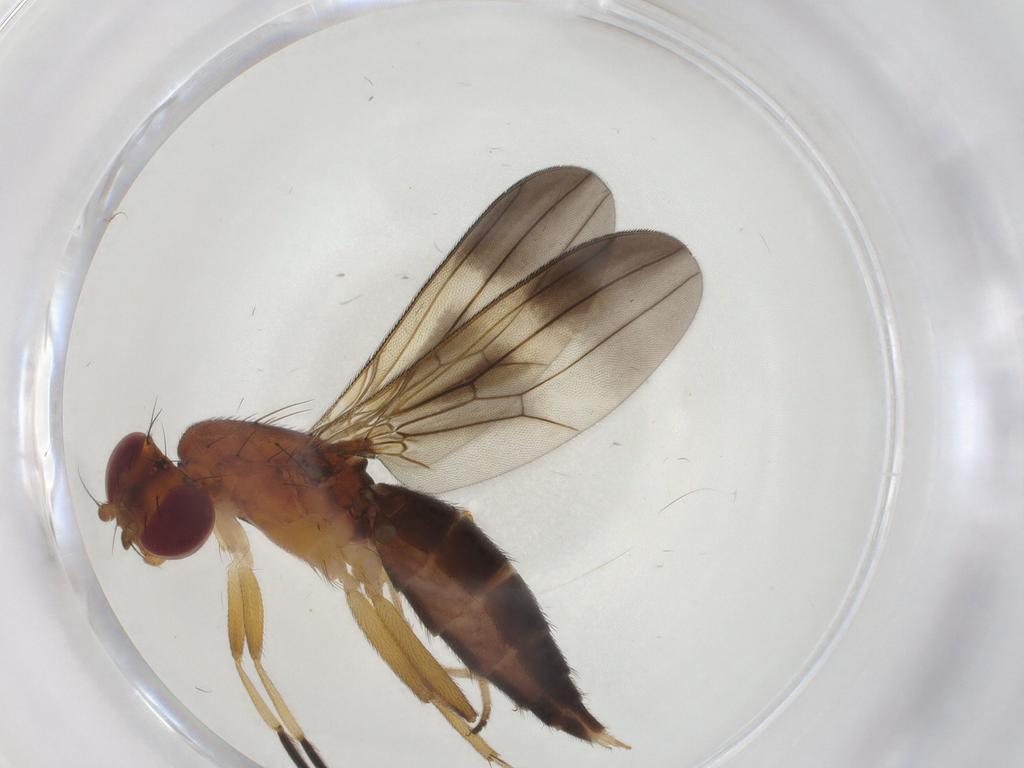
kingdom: Animalia
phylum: Arthropoda
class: Insecta
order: Diptera
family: Clusiidae
